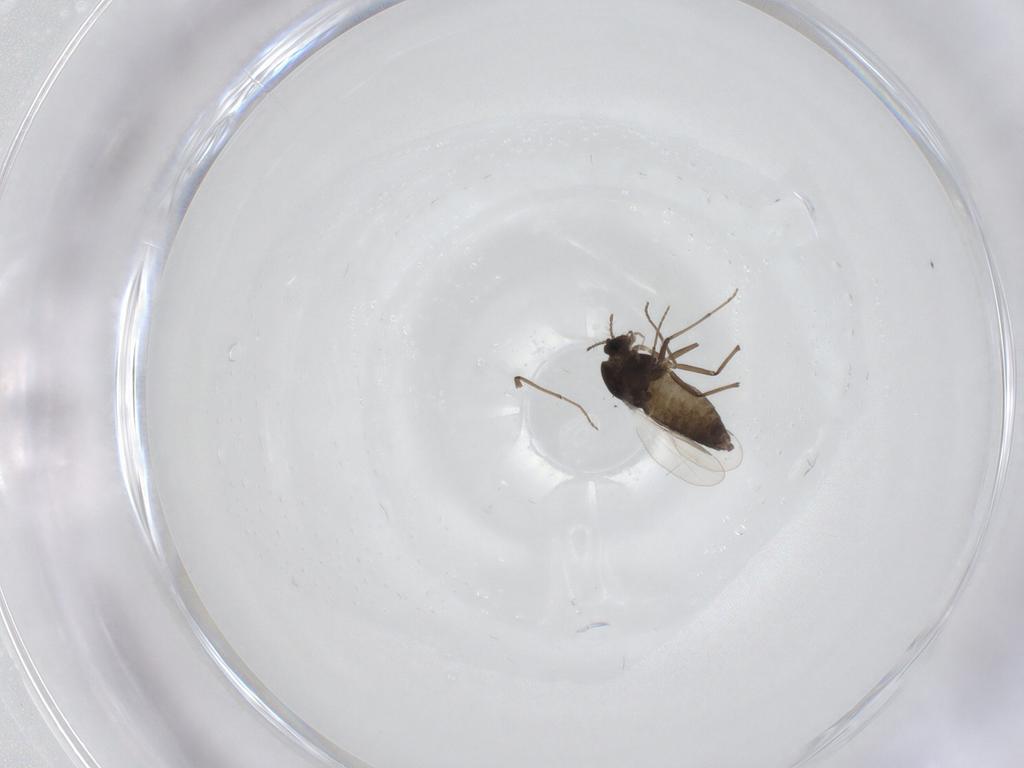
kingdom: Animalia
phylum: Arthropoda
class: Insecta
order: Diptera
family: Chironomidae
